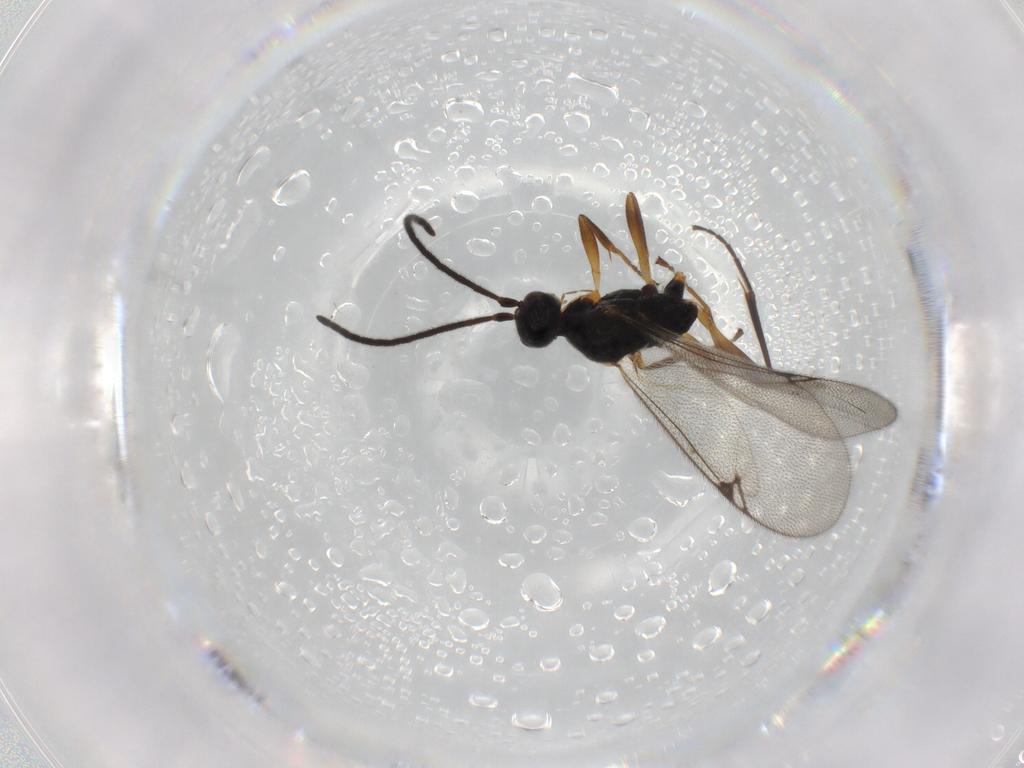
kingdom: Animalia
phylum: Arthropoda
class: Insecta
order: Hymenoptera
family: Proctotrupidae
